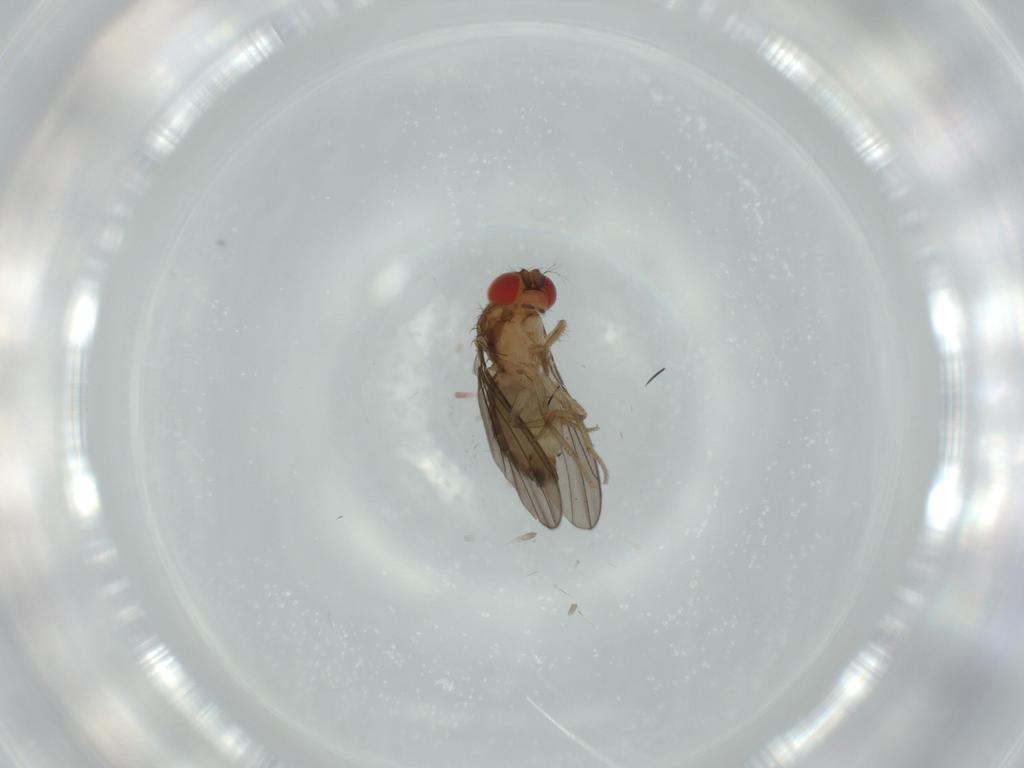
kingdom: Animalia
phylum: Arthropoda
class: Insecta
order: Diptera
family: Drosophilidae
